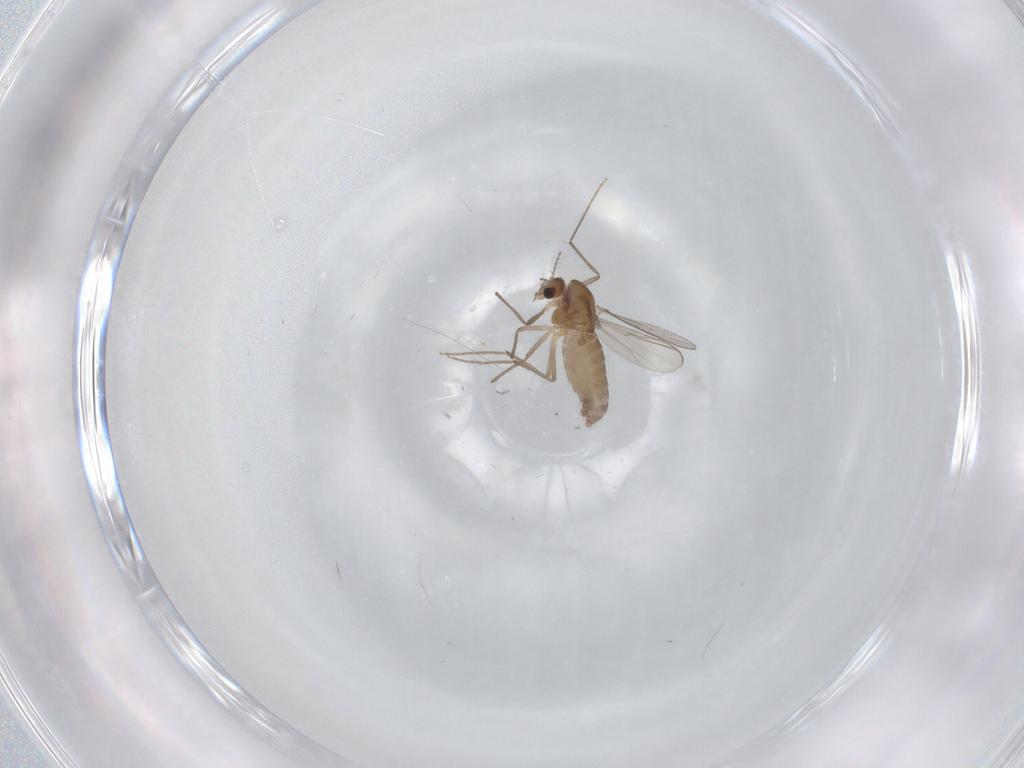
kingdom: Animalia
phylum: Arthropoda
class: Insecta
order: Diptera
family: Chironomidae
